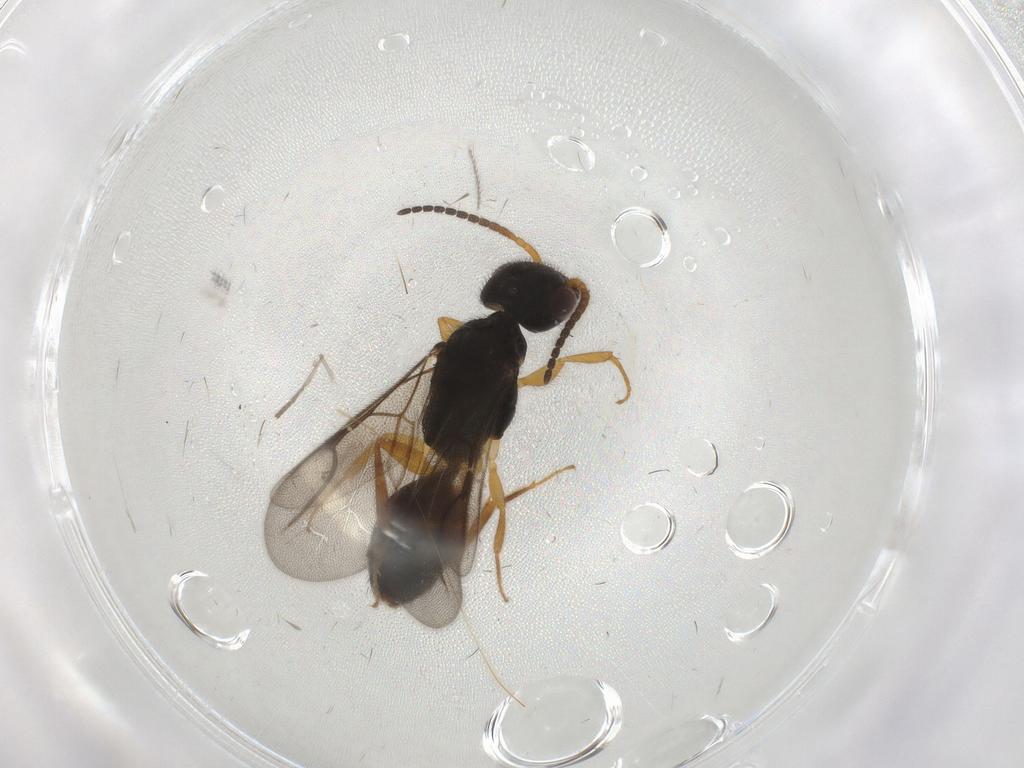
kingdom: Animalia
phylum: Arthropoda
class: Insecta
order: Hymenoptera
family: Bethylidae
